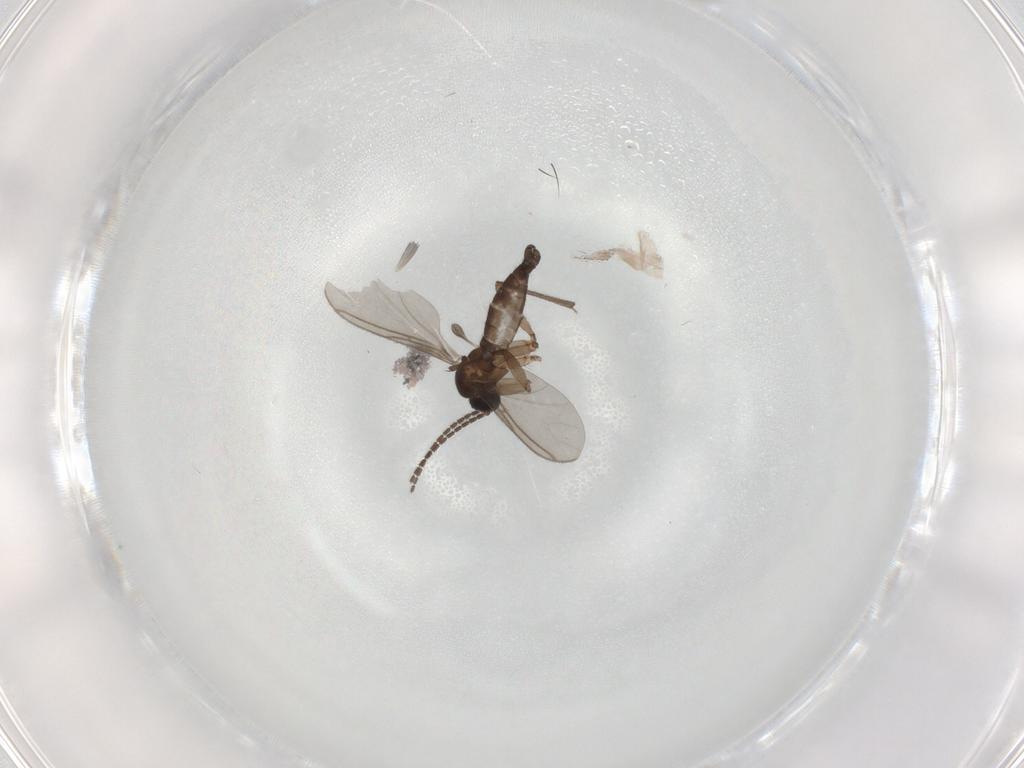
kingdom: Animalia
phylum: Arthropoda
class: Insecta
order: Diptera
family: Sciaridae
